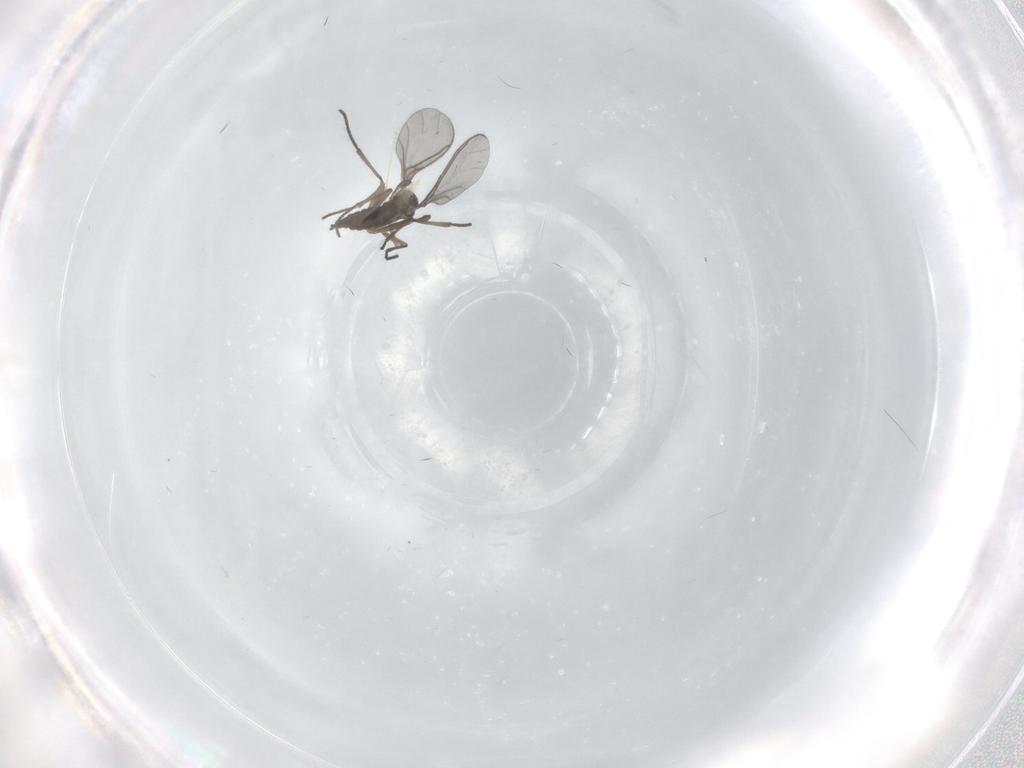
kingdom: Animalia
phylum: Arthropoda
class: Insecta
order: Diptera
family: Sciaridae
